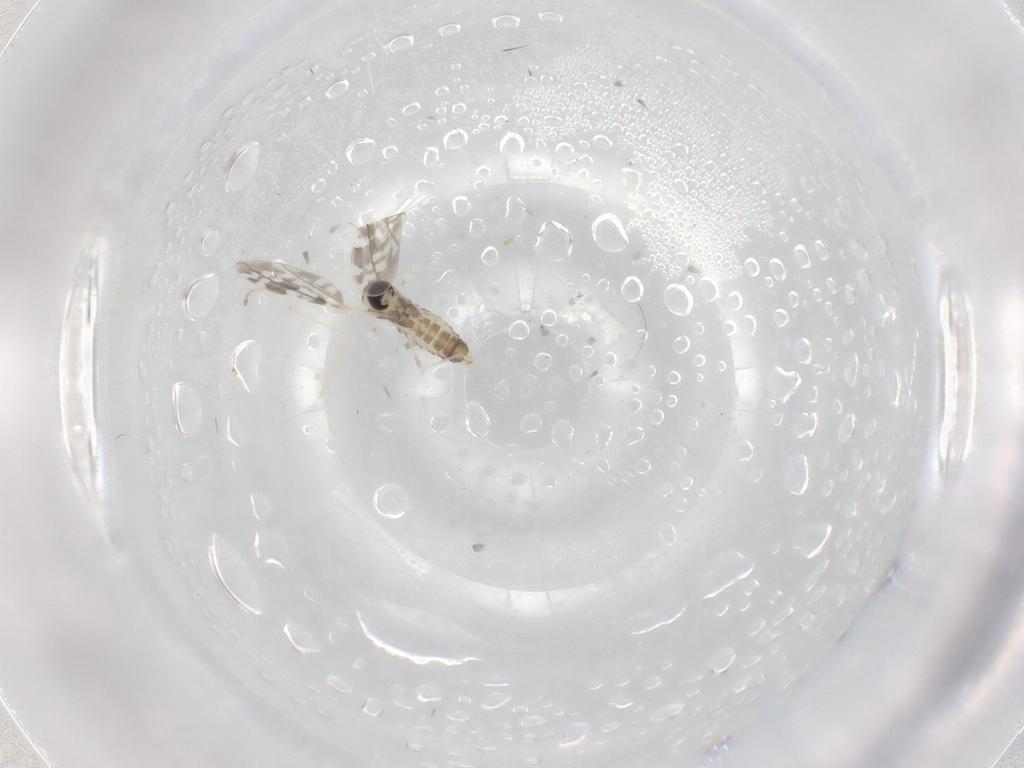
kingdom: Animalia
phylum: Arthropoda
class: Insecta
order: Diptera
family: Cecidomyiidae
